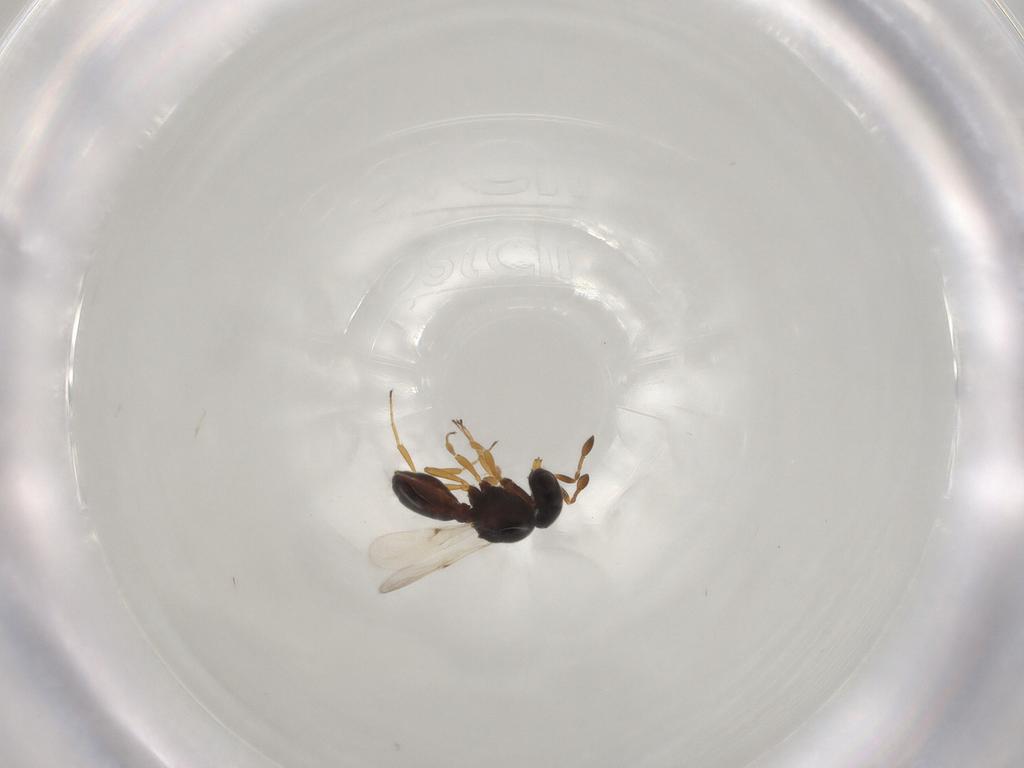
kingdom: Animalia
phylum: Arthropoda
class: Insecta
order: Hymenoptera
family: Scelionidae
